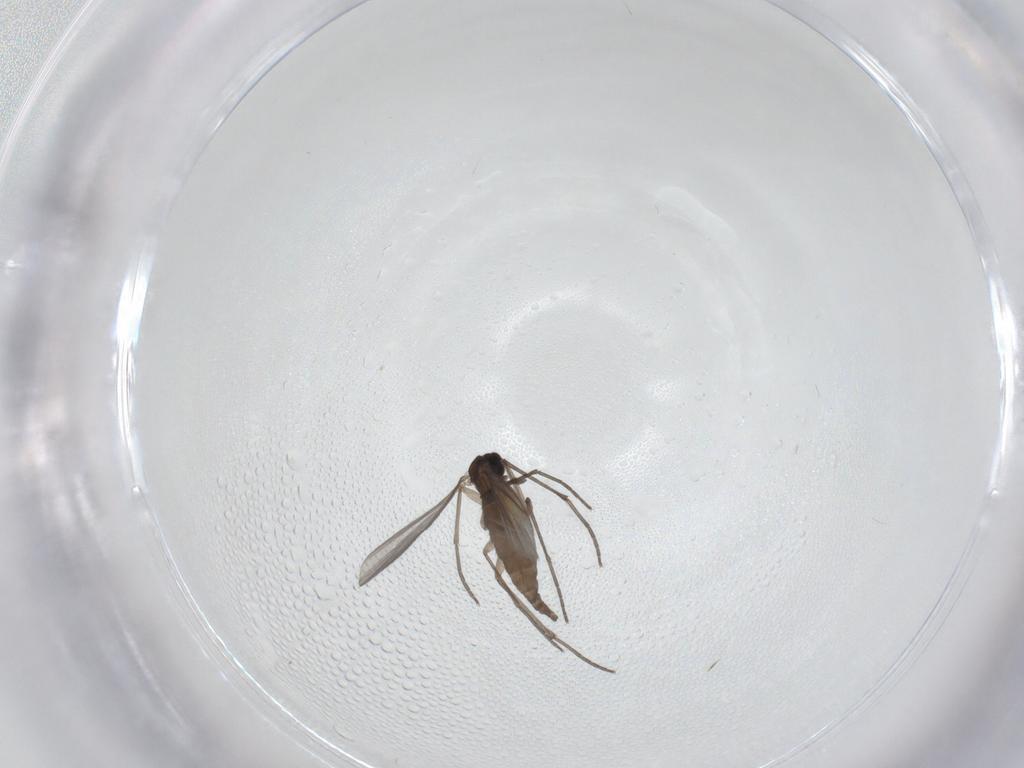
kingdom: Animalia
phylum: Arthropoda
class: Insecta
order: Diptera
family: Sciaridae
